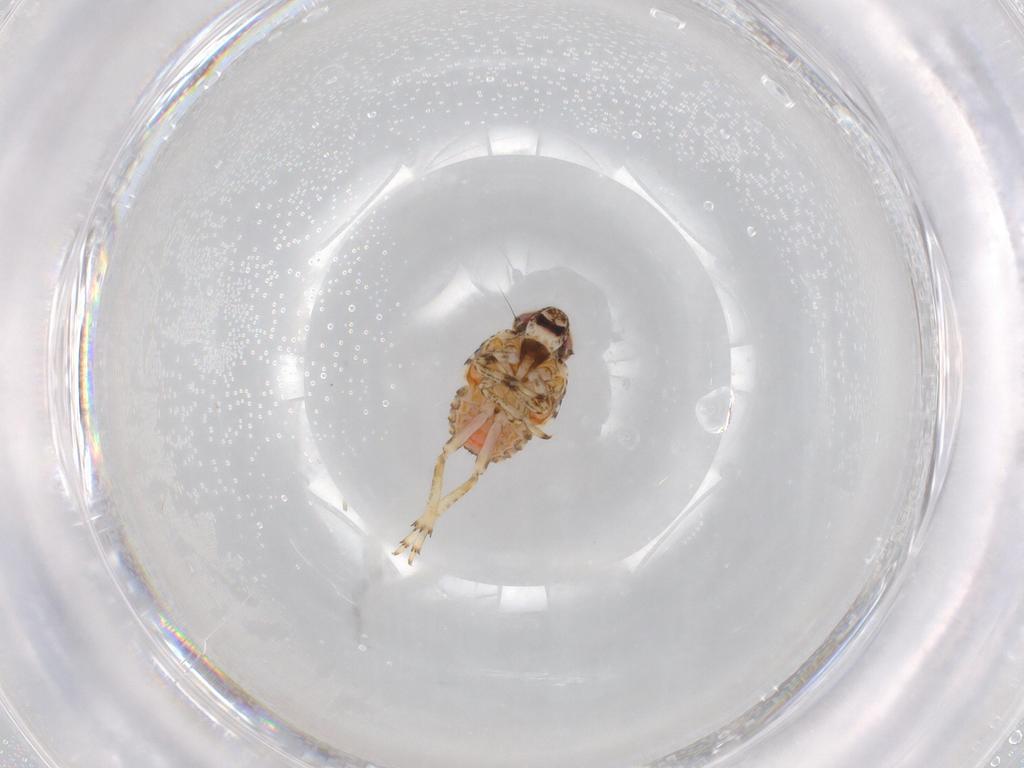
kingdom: Animalia
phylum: Arthropoda
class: Insecta
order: Hemiptera
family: Issidae
